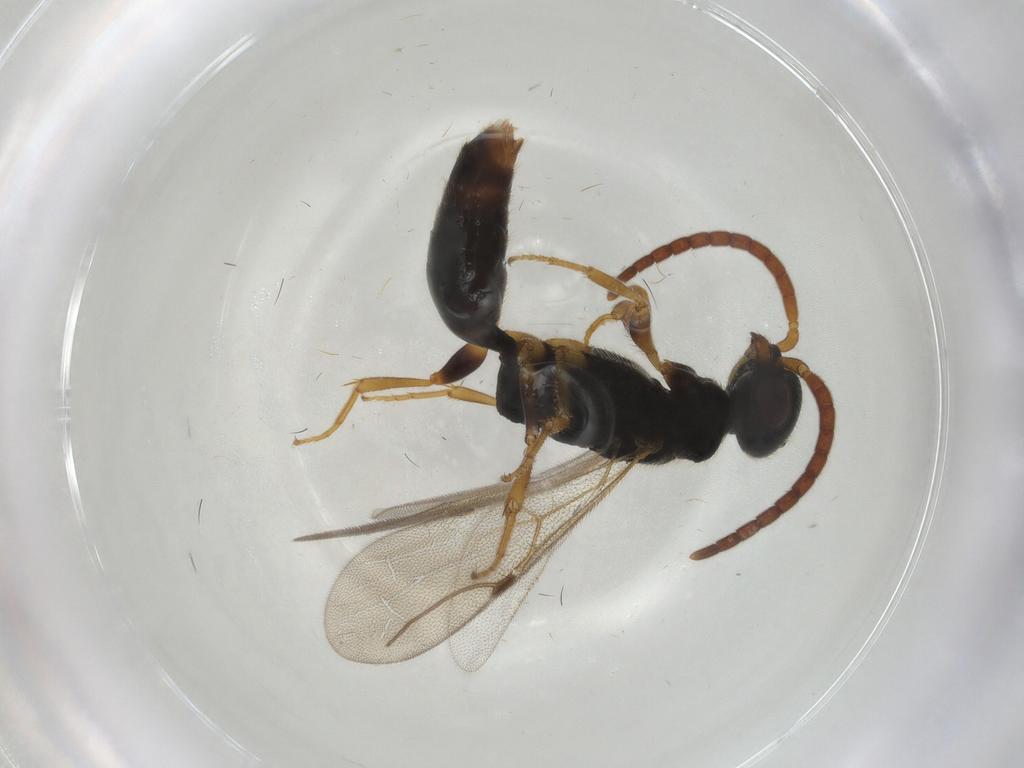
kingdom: Animalia
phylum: Arthropoda
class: Insecta
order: Diptera
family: Cecidomyiidae
